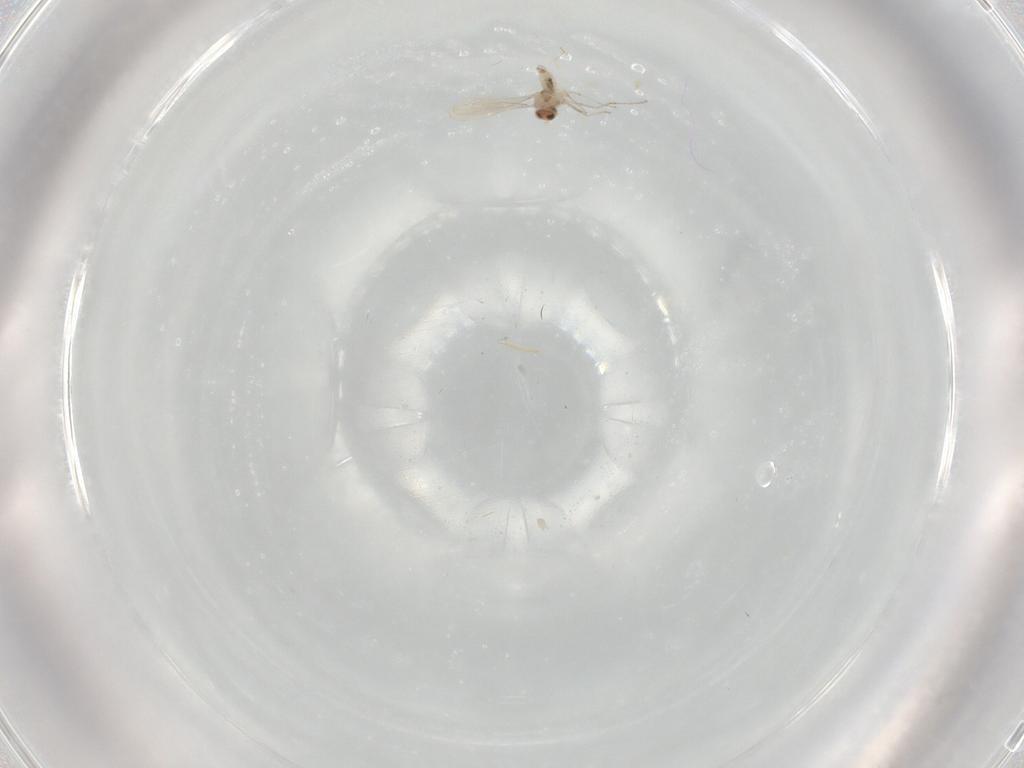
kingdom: Animalia
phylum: Arthropoda
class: Insecta
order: Diptera
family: Cecidomyiidae
